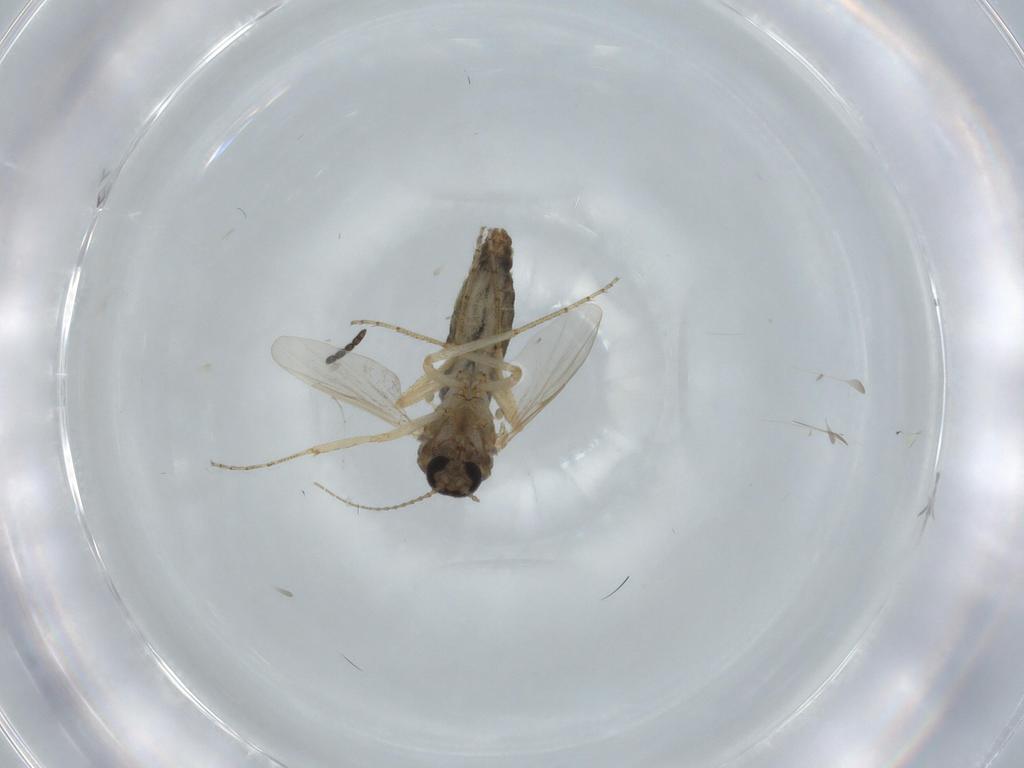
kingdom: Animalia
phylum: Arthropoda
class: Insecta
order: Diptera
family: Milichiidae
